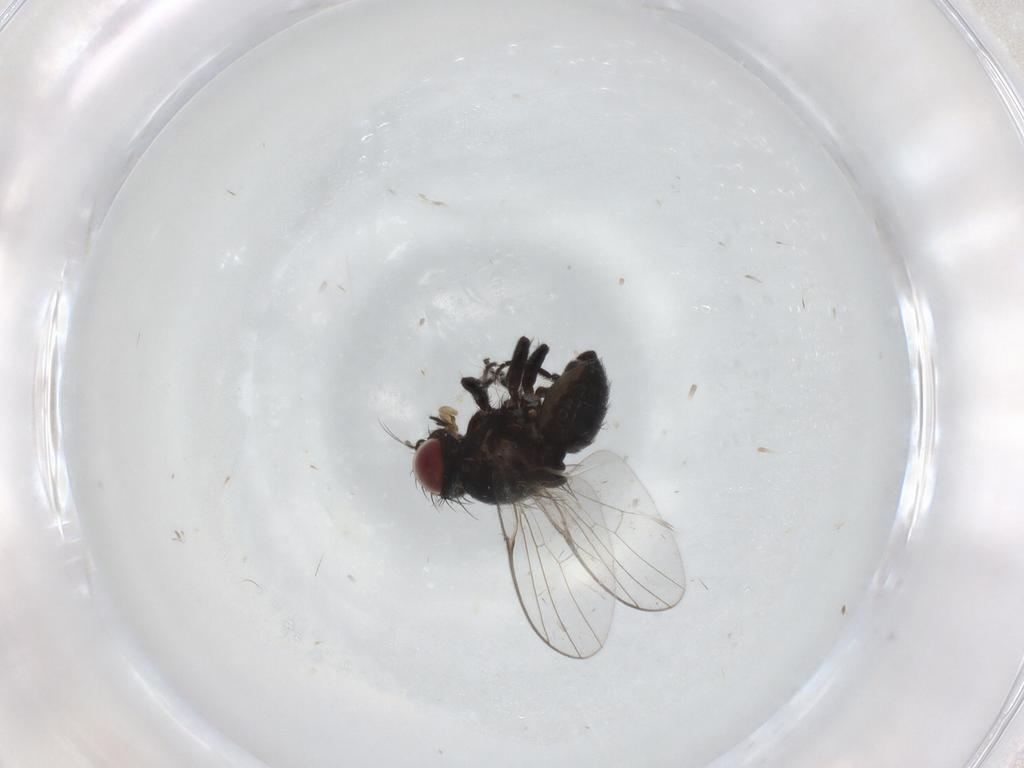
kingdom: Animalia
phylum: Arthropoda
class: Insecta
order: Diptera
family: Agromyzidae
